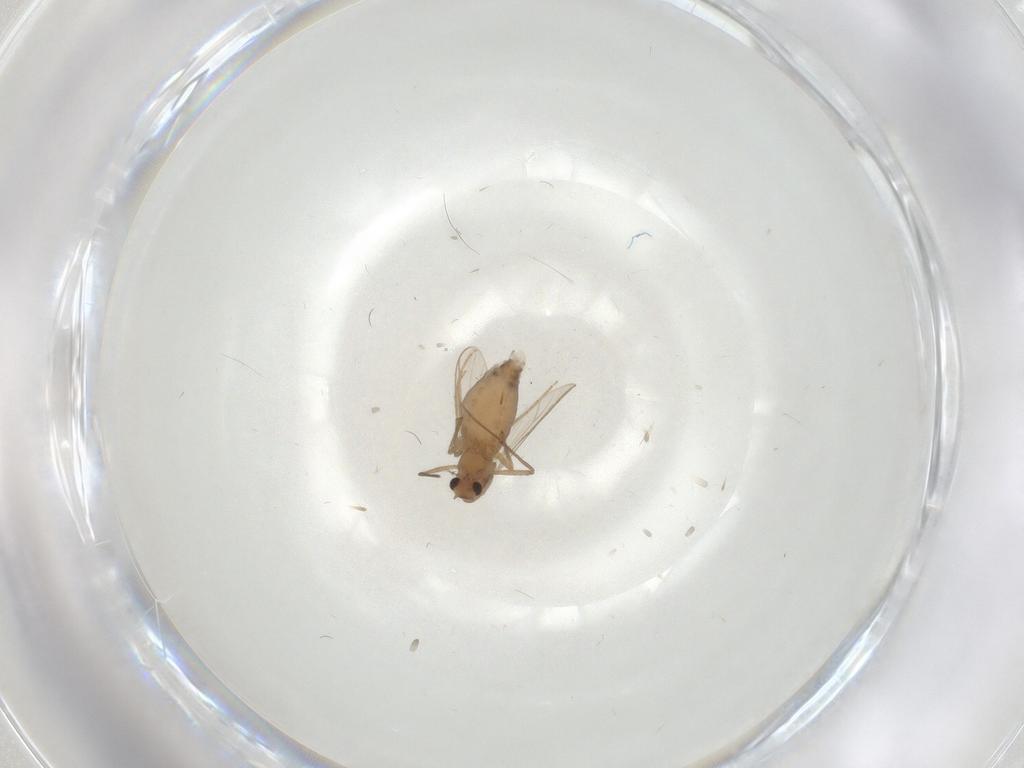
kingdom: Animalia
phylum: Arthropoda
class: Insecta
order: Diptera
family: Chironomidae
